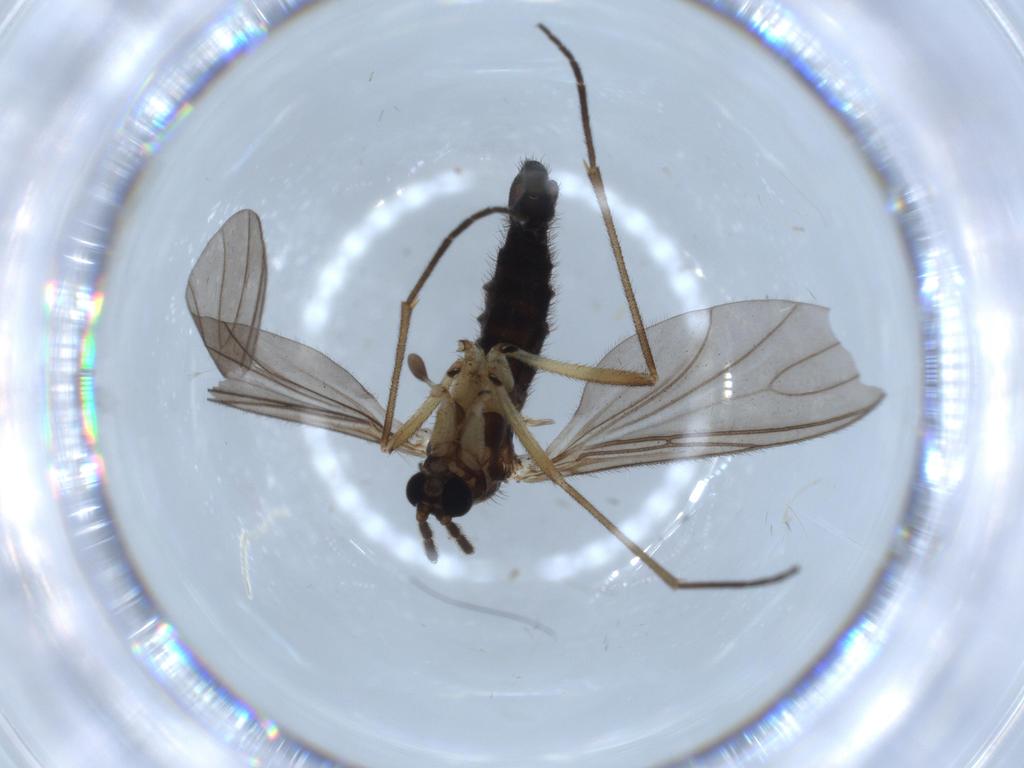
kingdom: Animalia
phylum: Arthropoda
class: Insecta
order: Diptera
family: Sciaridae
